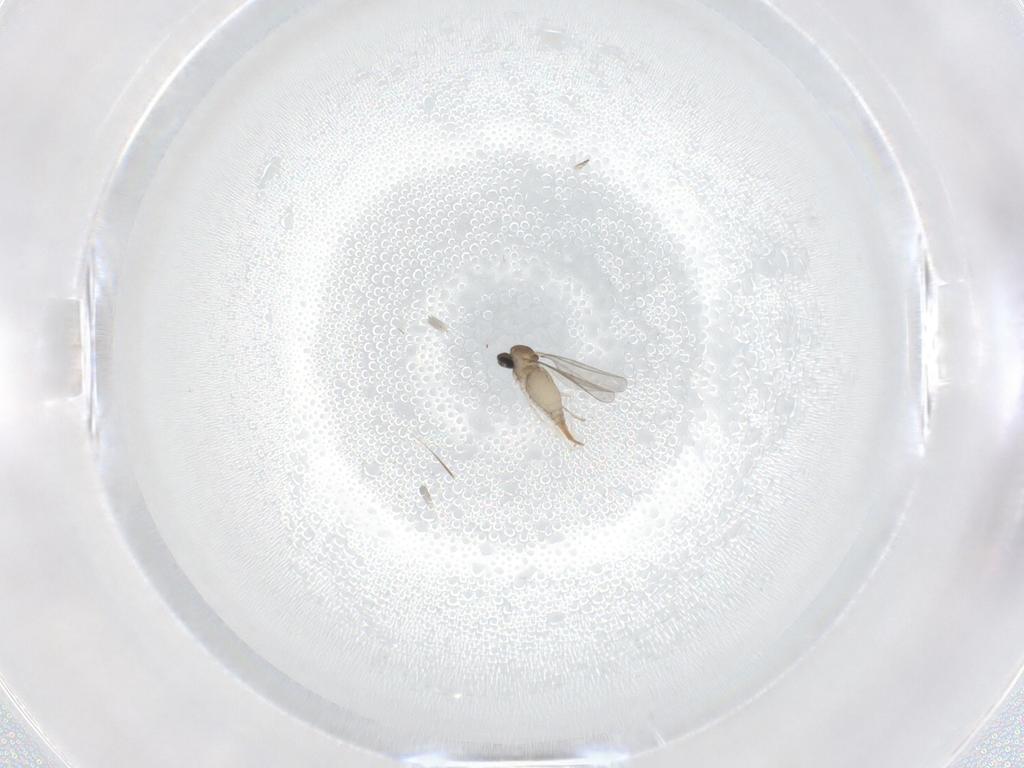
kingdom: Animalia
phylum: Arthropoda
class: Insecta
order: Diptera
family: Cecidomyiidae
